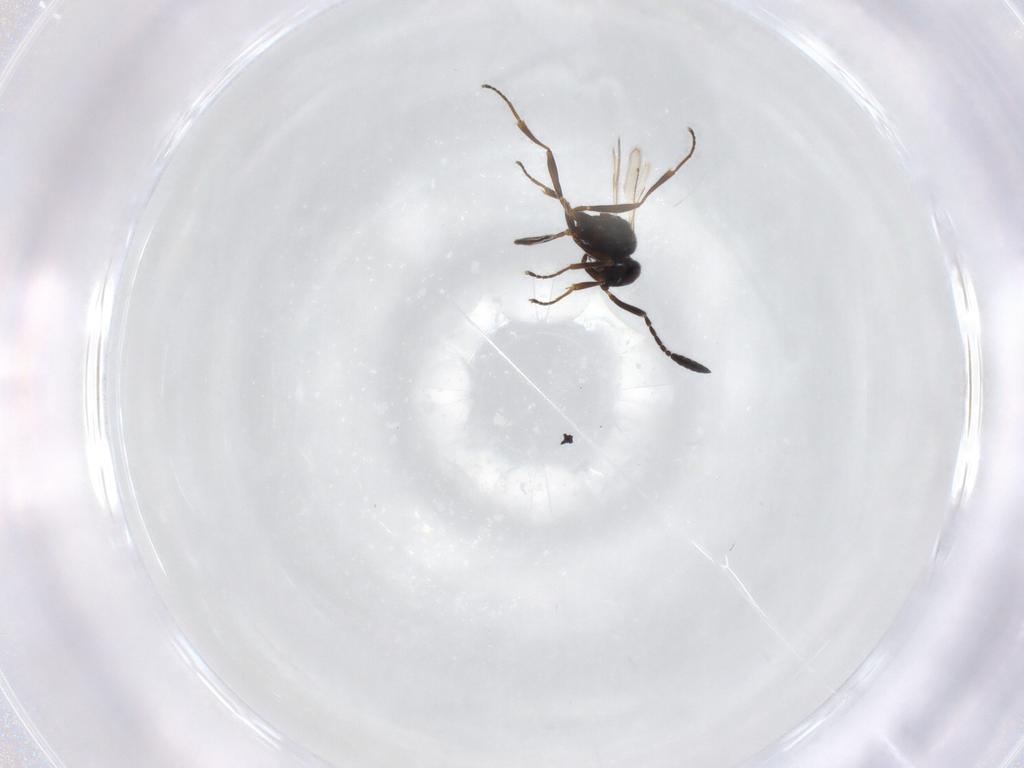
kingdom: Animalia
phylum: Arthropoda
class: Insecta
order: Hymenoptera
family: Scelionidae
